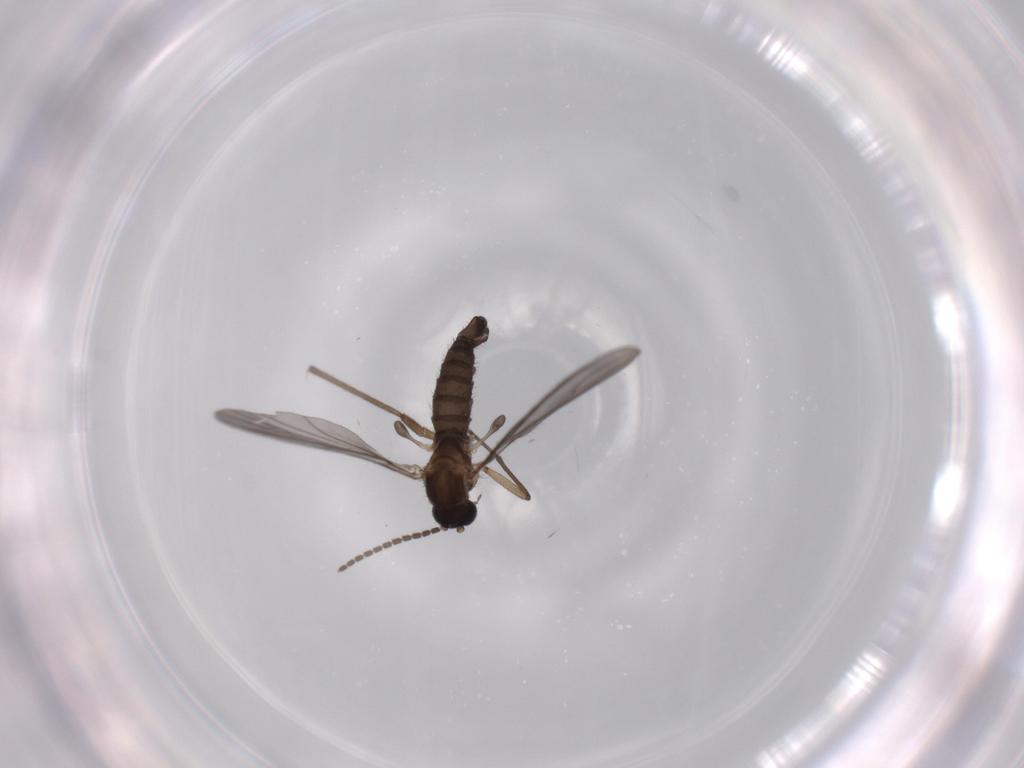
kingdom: Animalia
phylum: Arthropoda
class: Insecta
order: Diptera
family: Sciaridae
